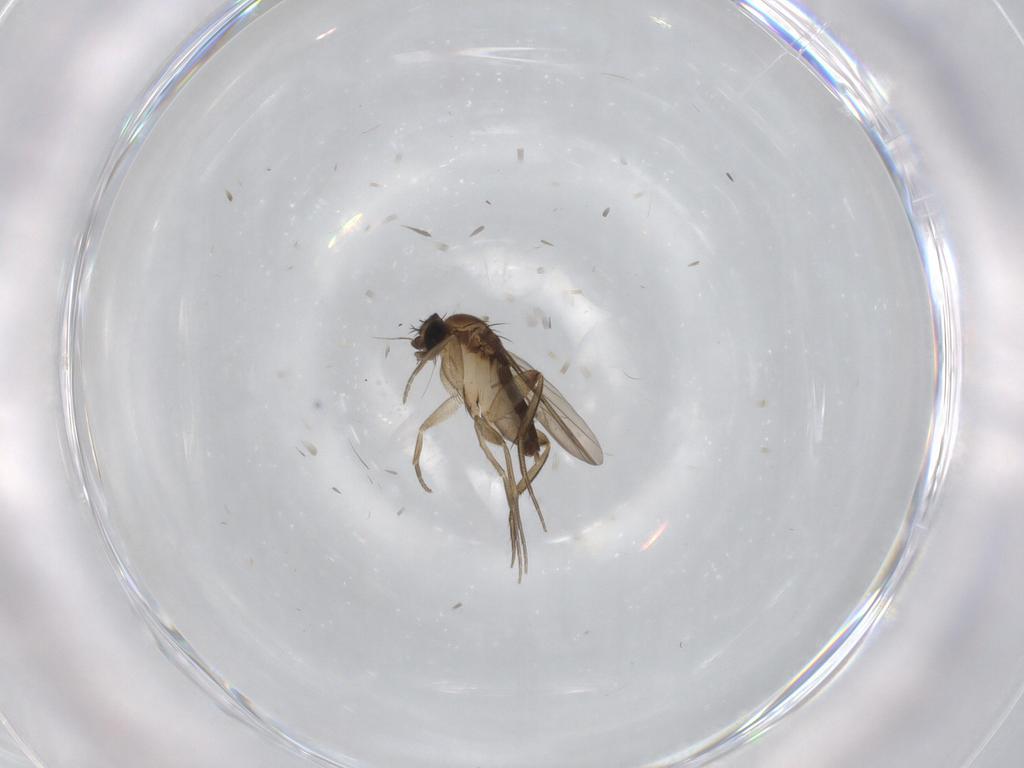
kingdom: Animalia
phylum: Arthropoda
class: Insecta
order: Diptera
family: Phoridae
